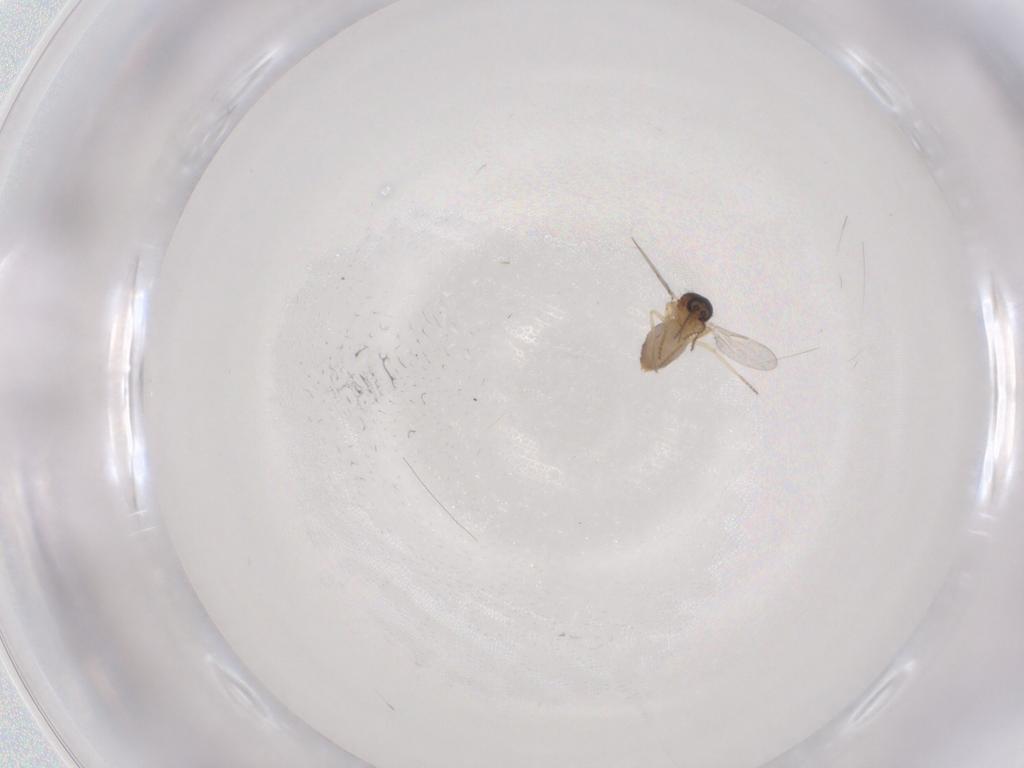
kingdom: Animalia
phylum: Arthropoda
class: Insecta
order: Diptera
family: Ceratopogonidae
